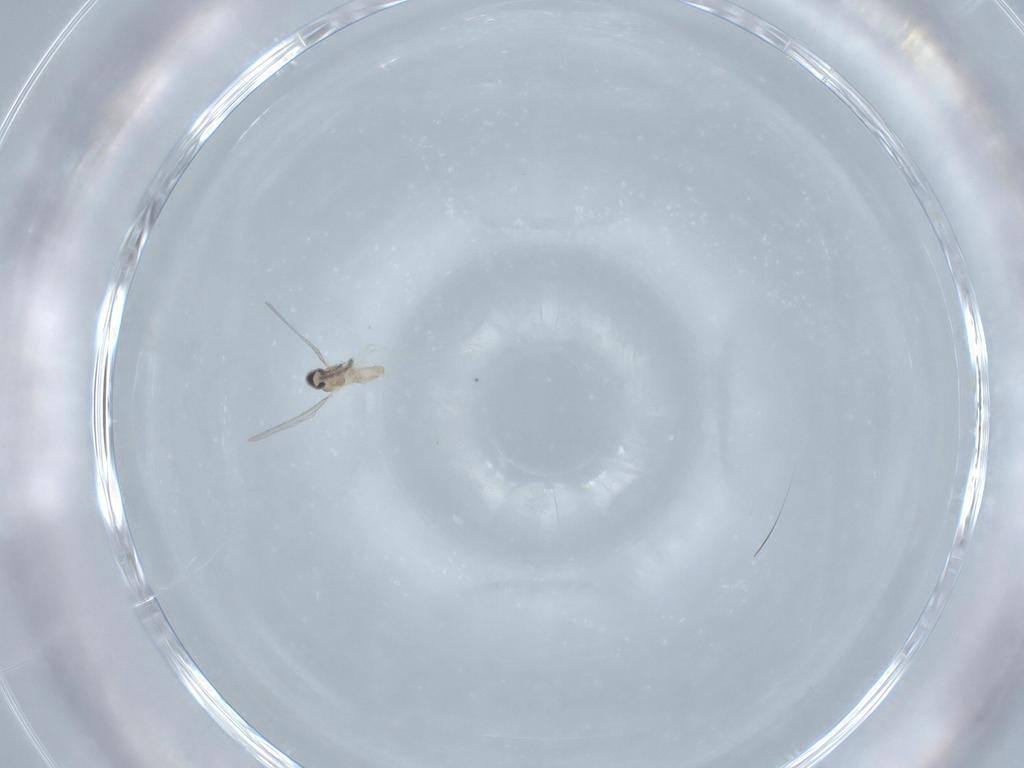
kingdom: Animalia
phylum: Arthropoda
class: Insecta
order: Diptera
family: Cecidomyiidae
